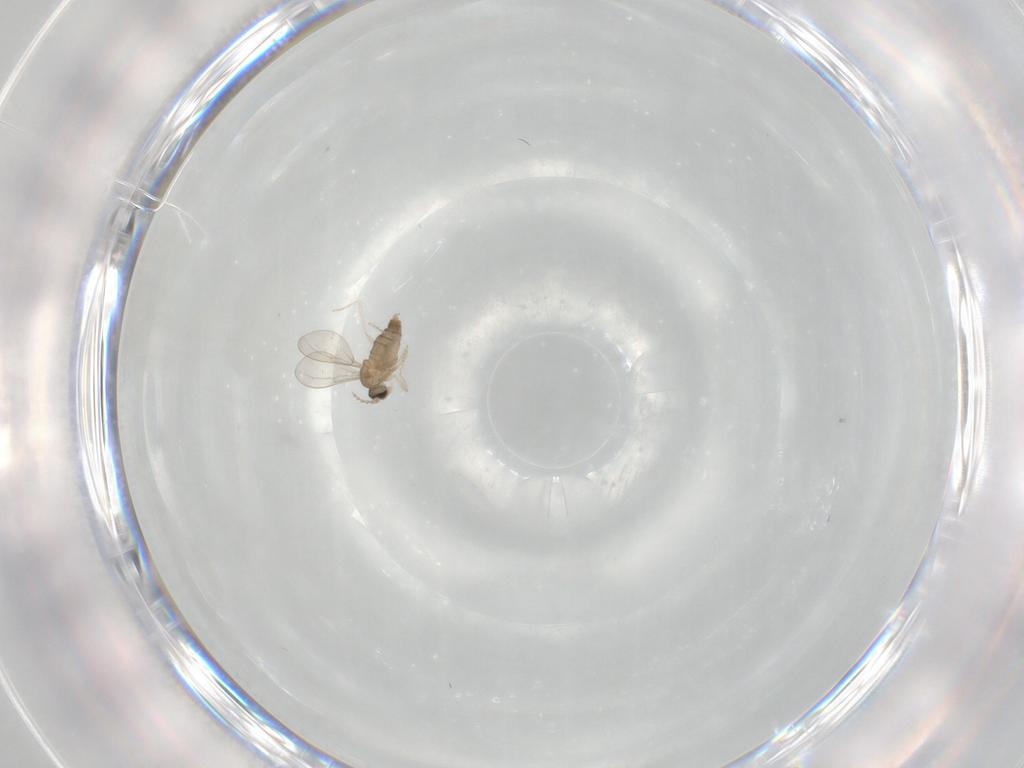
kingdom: Animalia
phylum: Arthropoda
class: Insecta
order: Diptera
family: Cecidomyiidae
